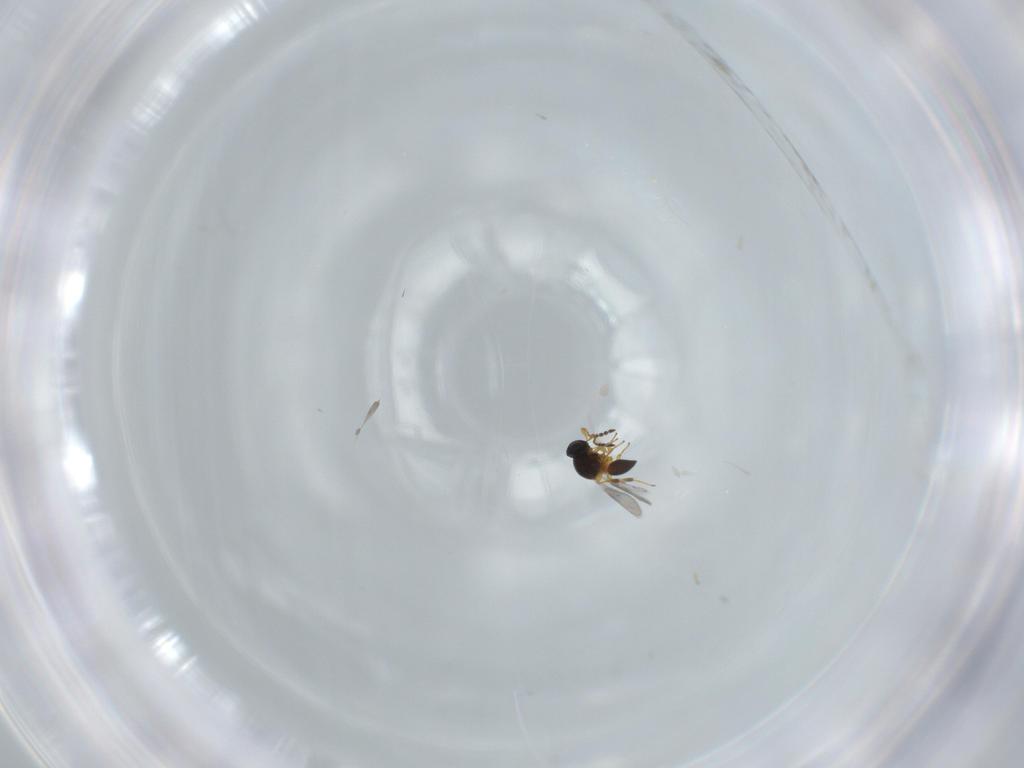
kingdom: Animalia
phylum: Arthropoda
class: Insecta
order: Hymenoptera
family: Platygastridae
